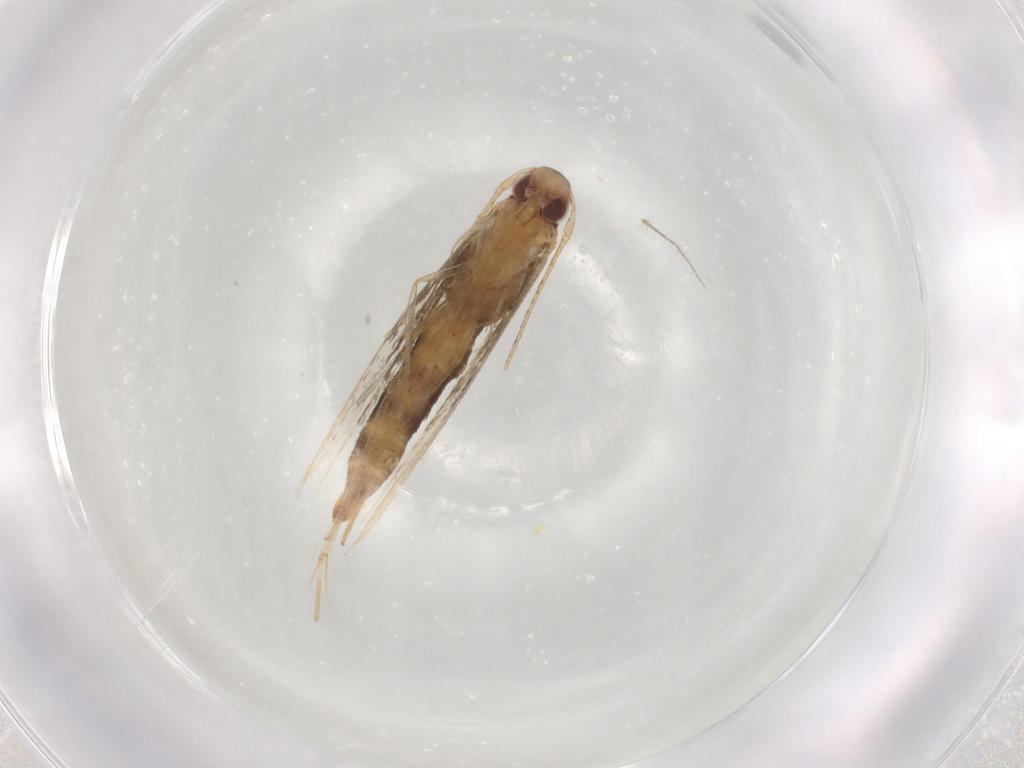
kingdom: Animalia
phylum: Arthropoda
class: Insecta
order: Lepidoptera
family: Cosmopterigidae
